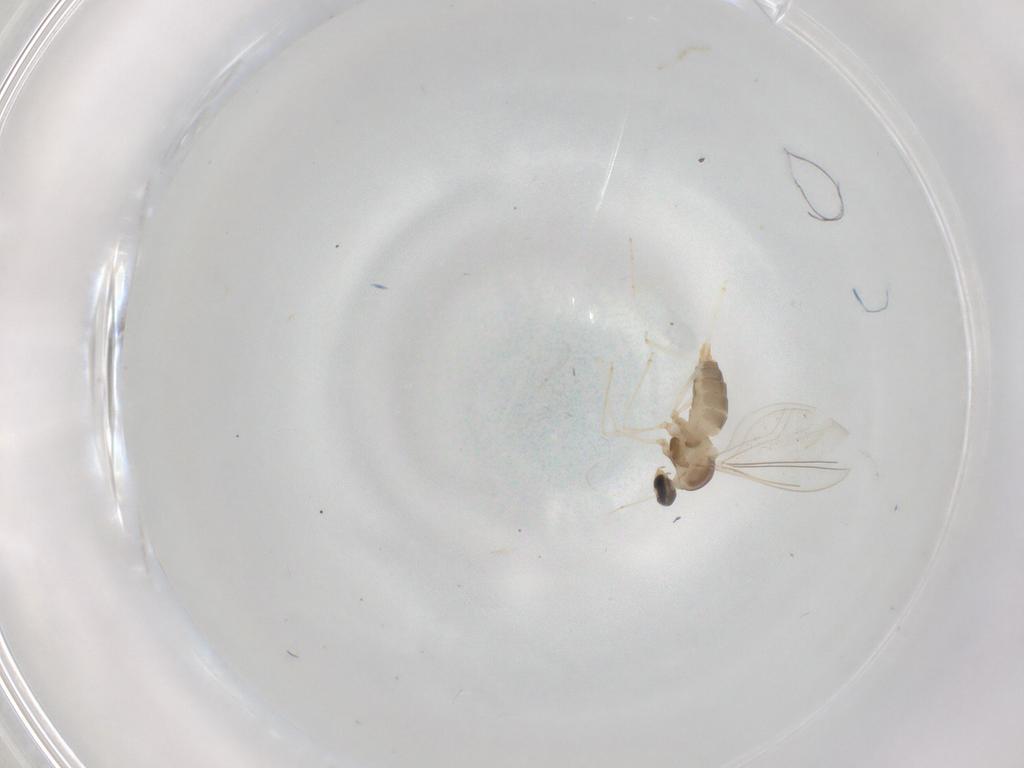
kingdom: Animalia
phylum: Arthropoda
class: Insecta
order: Diptera
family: Cecidomyiidae
